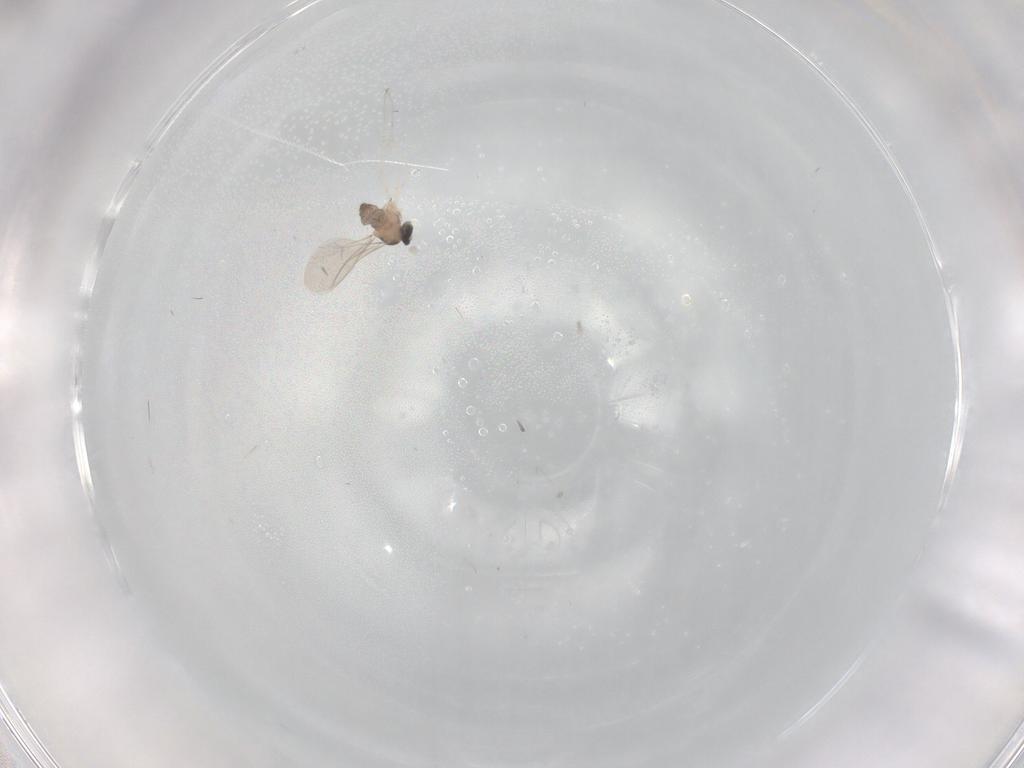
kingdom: Animalia
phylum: Arthropoda
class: Insecta
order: Diptera
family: Cecidomyiidae
